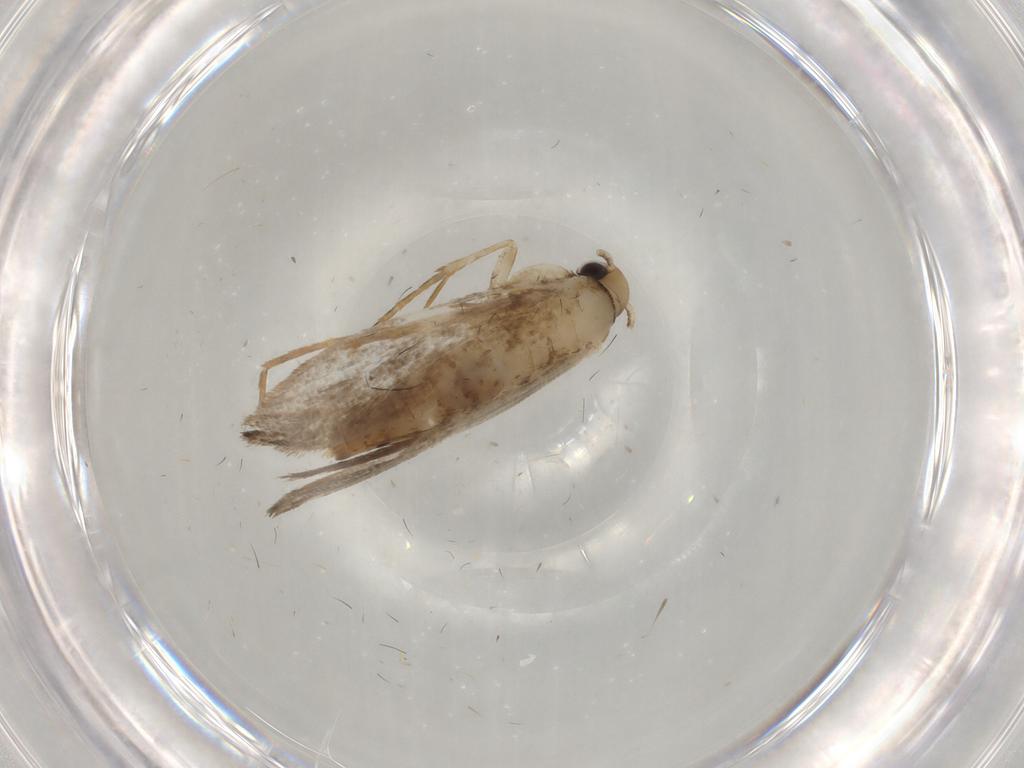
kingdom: Animalia
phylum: Arthropoda
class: Insecta
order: Lepidoptera
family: Tineidae
